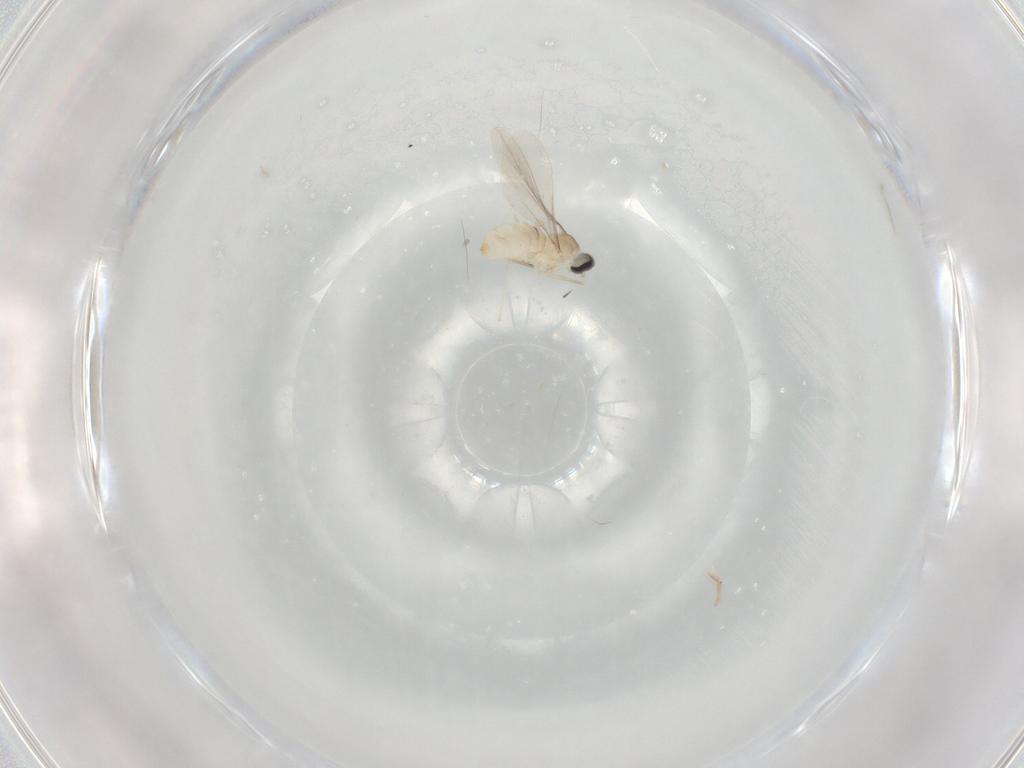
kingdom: Animalia
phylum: Arthropoda
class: Insecta
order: Diptera
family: Cecidomyiidae
